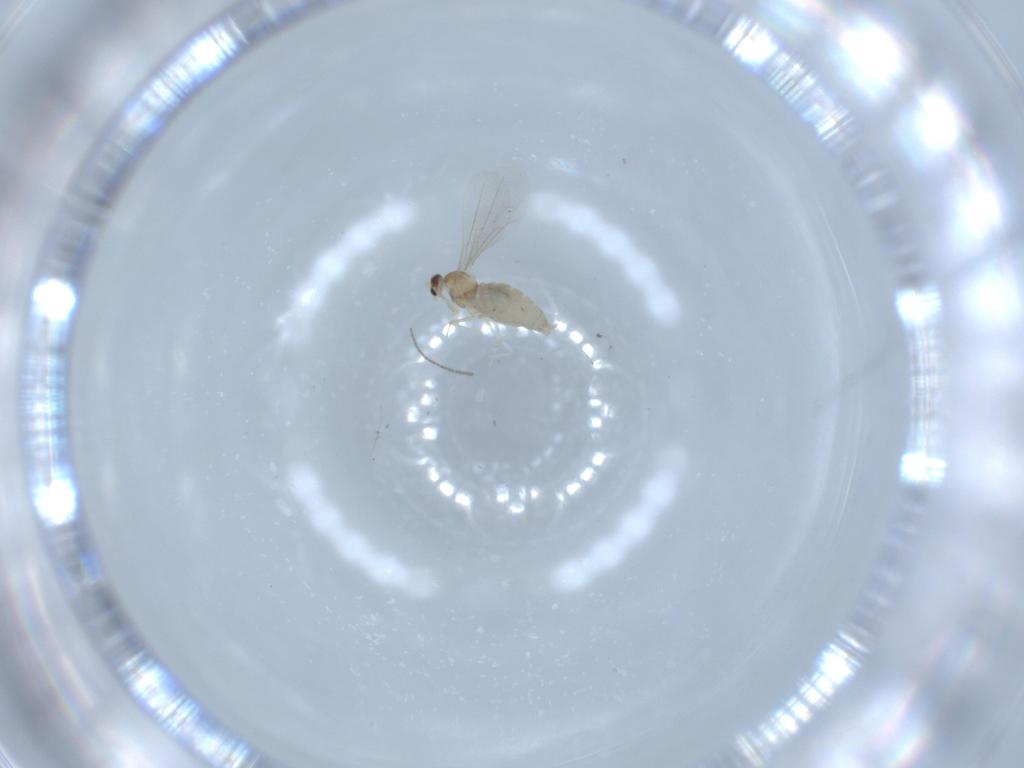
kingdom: Animalia
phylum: Arthropoda
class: Insecta
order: Diptera
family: Cecidomyiidae
